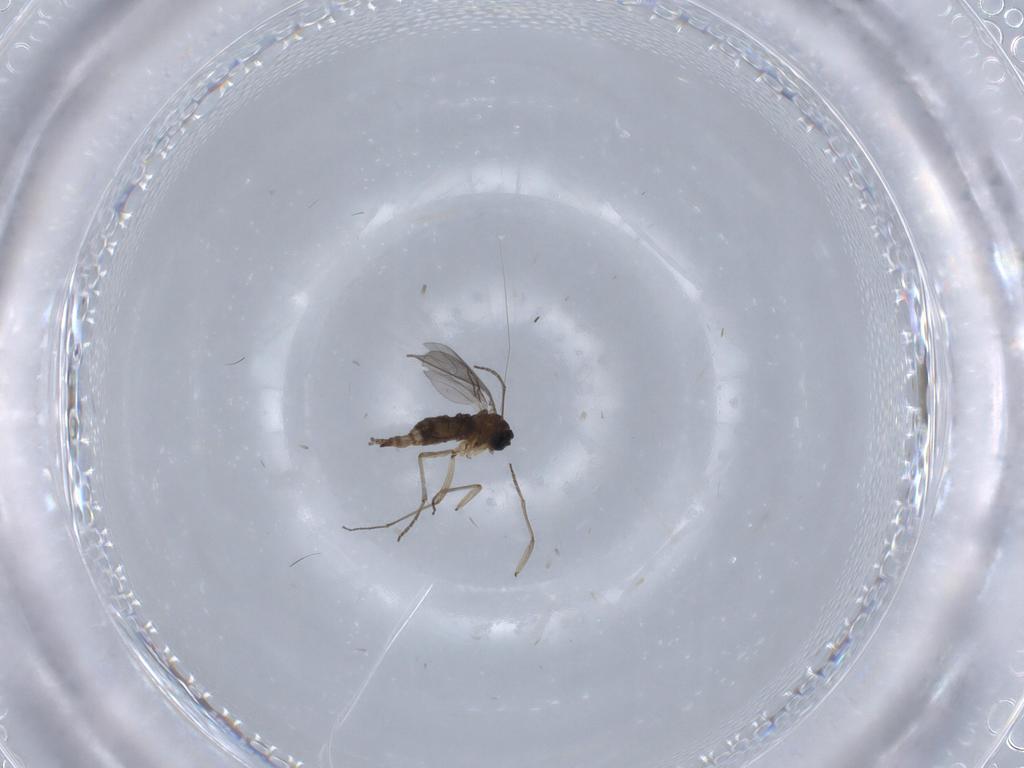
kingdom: Animalia
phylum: Arthropoda
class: Insecta
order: Diptera
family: Sciaridae
